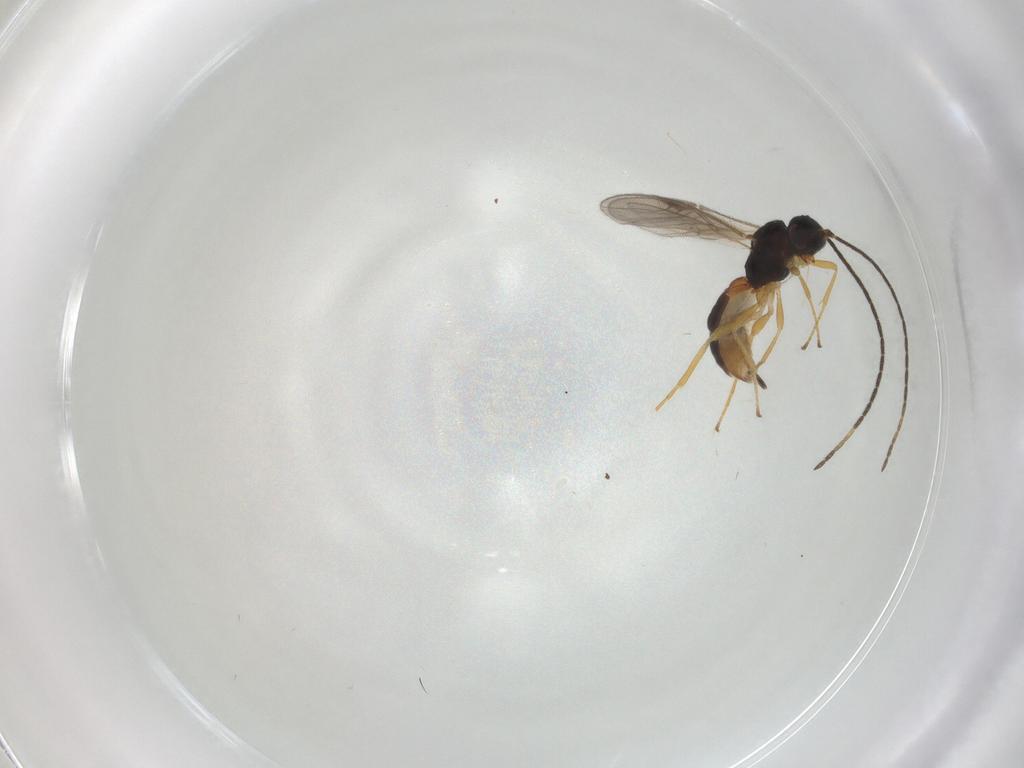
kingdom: Animalia
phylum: Arthropoda
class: Insecta
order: Hymenoptera
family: Braconidae
